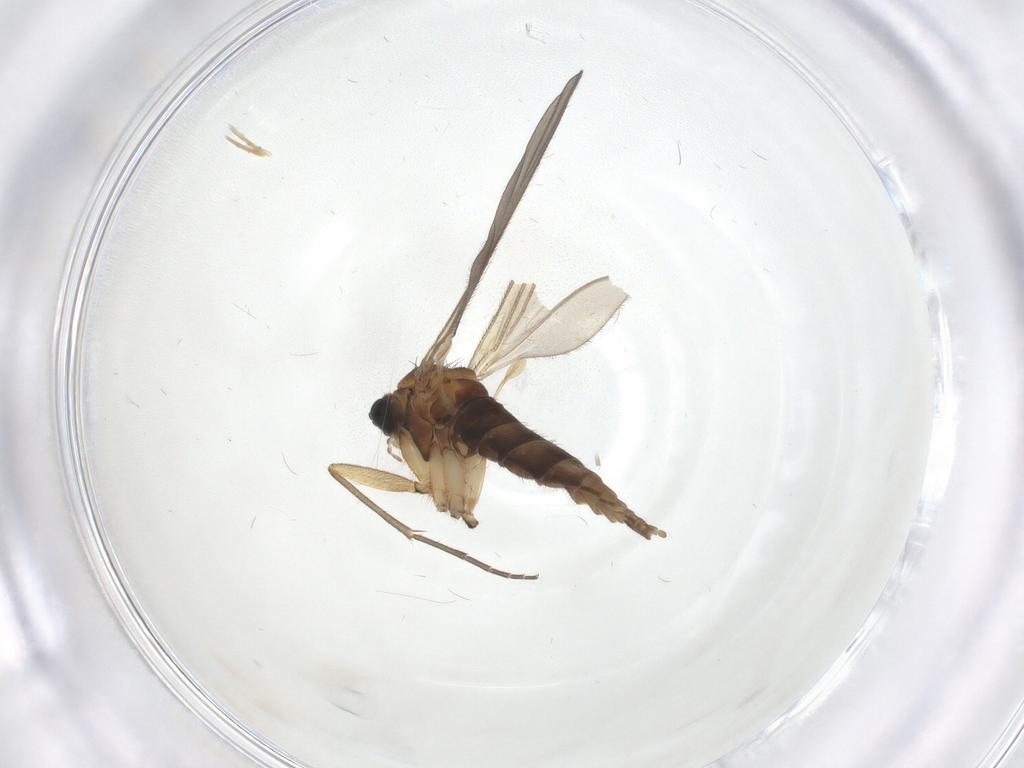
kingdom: Animalia
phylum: Arthropoda
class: Insecta
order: Diptera
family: Sciaridae
